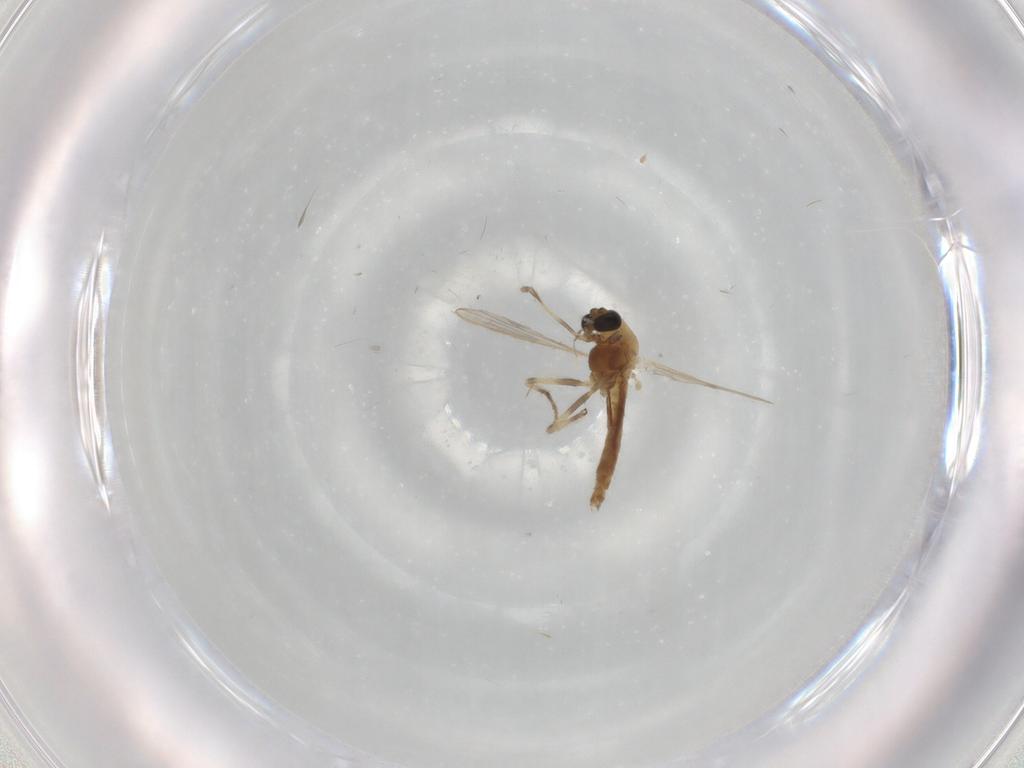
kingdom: Animalia
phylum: Arthropoda
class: Insecta
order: Diptera
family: Chironomidae
